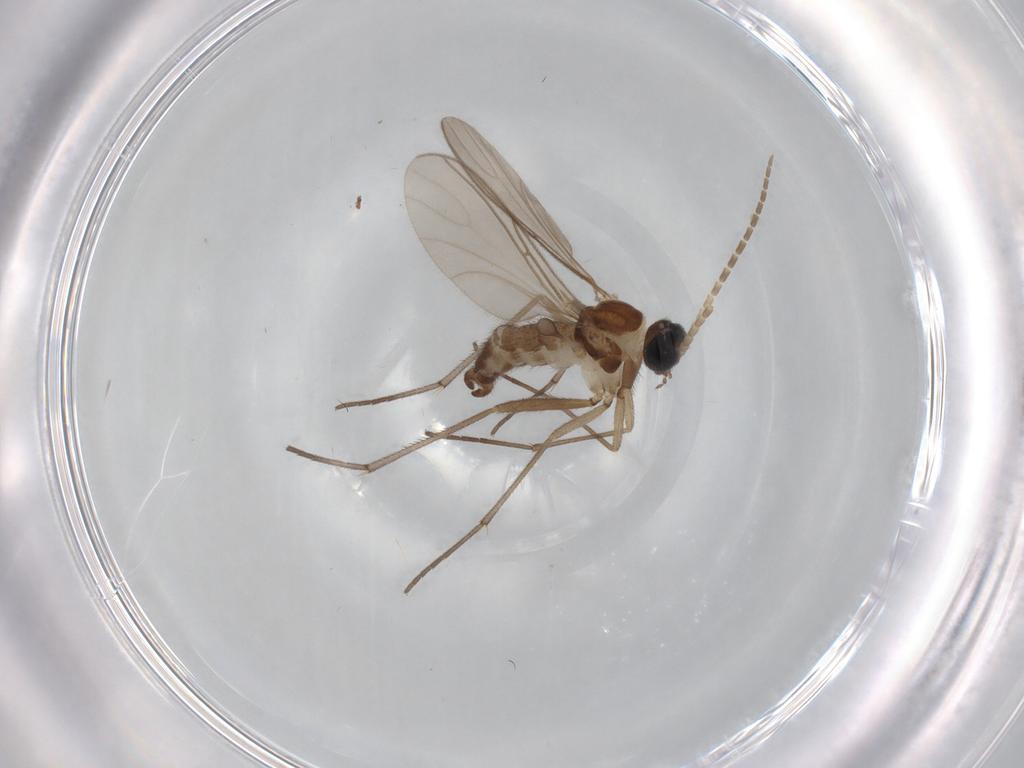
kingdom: Animalia
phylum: Arthropoda
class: Insecta
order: Diptera
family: Sciaridae
